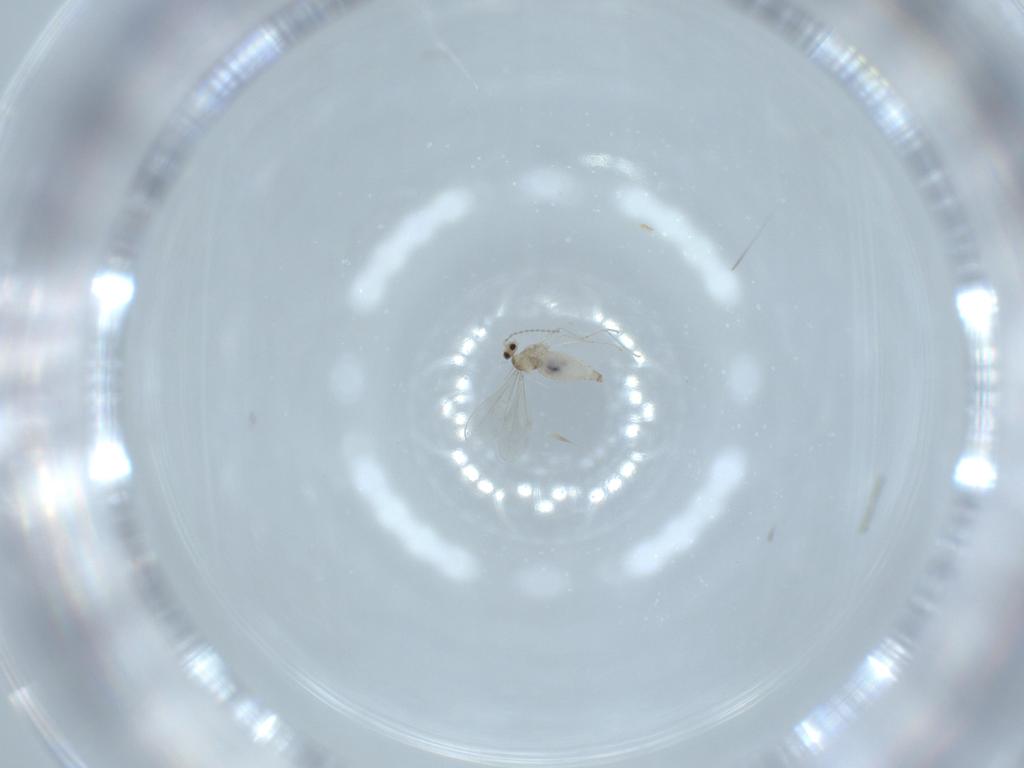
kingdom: Animalia
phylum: Arthropoda
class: Insecta
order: Diptera
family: Cecidomyiidae
